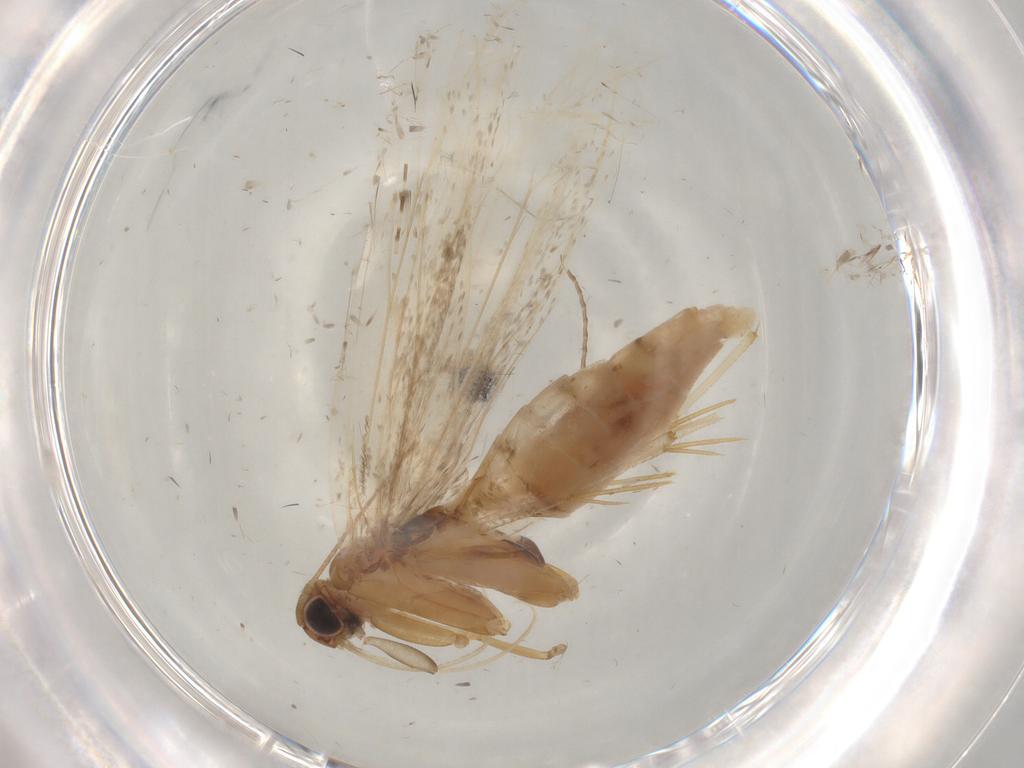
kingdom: Animalia
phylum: Arthropoda
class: Insecta
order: Lepidoptera
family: Gelechiidae
